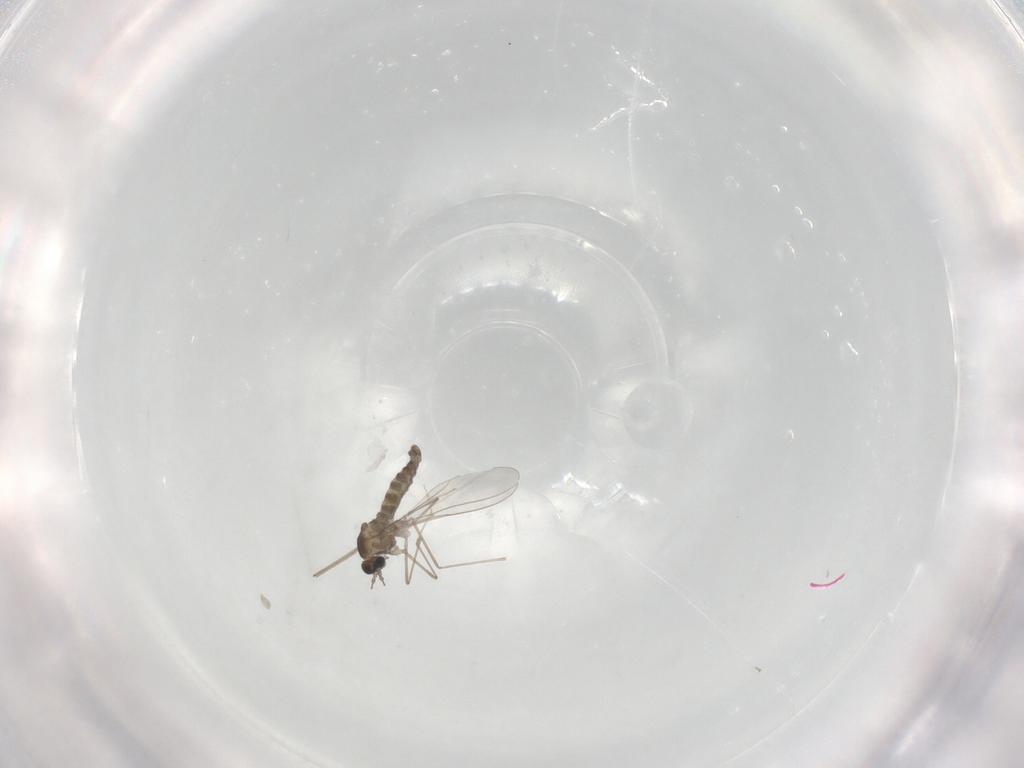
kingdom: Animalia
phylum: Arthropoda
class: Insecta
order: Diptera
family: Cecidomyiidae
